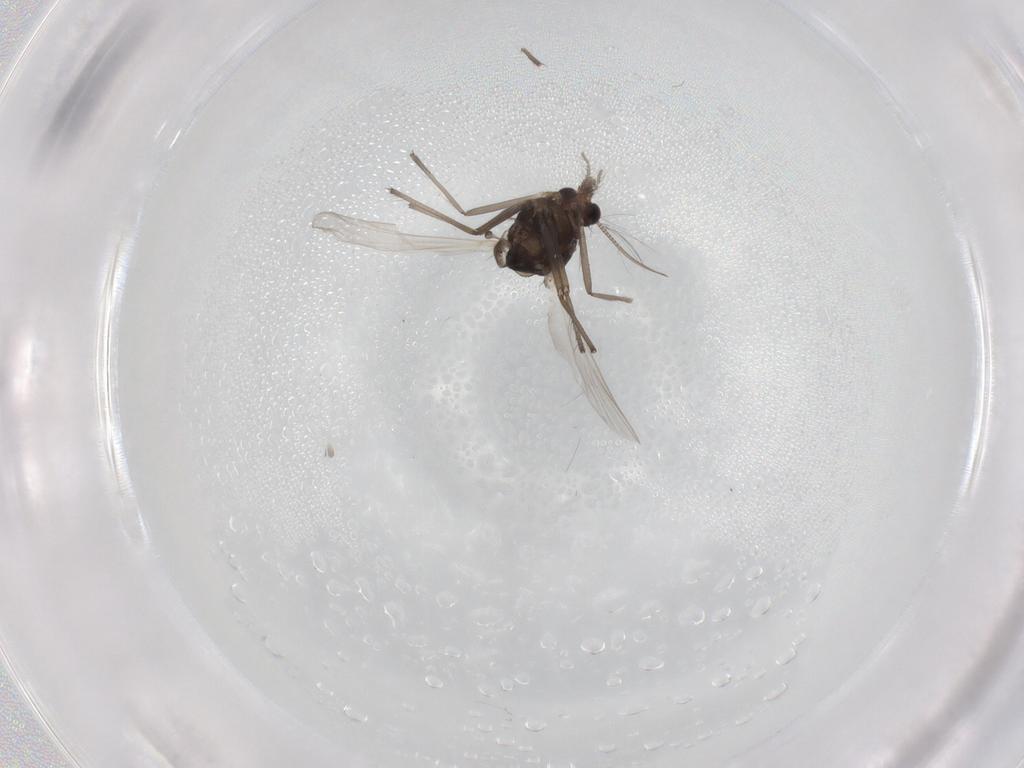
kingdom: Animalia
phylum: Arthropoda
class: Insecta
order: Diptera
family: Chironomidae
